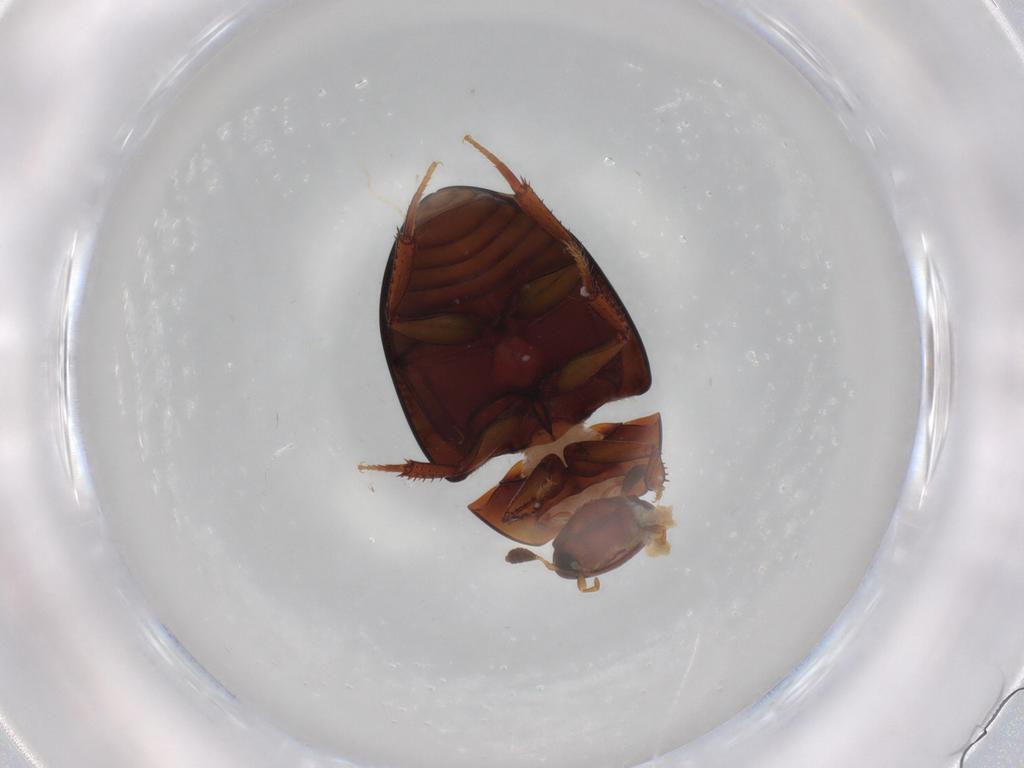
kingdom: Animalia
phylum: Arthropoda
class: Insecta
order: Coleoptera
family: Hydrophilidae
